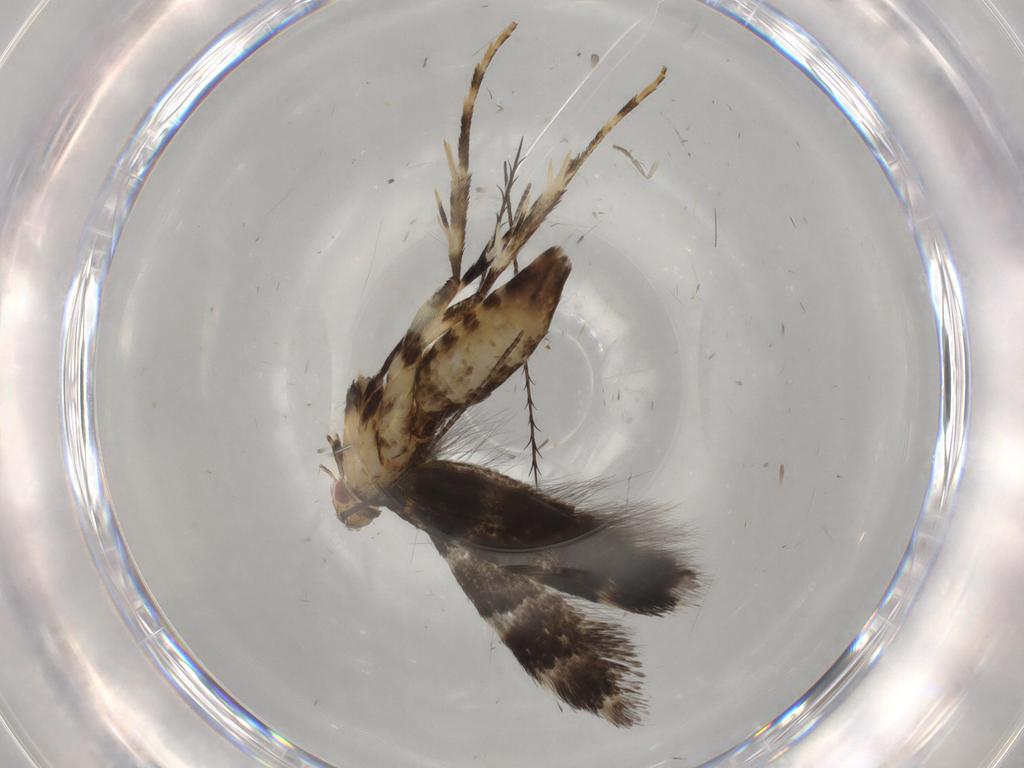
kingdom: Animalia
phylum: Arthropoda
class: Insecta
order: Lepidoptera
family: Gracillariidae
